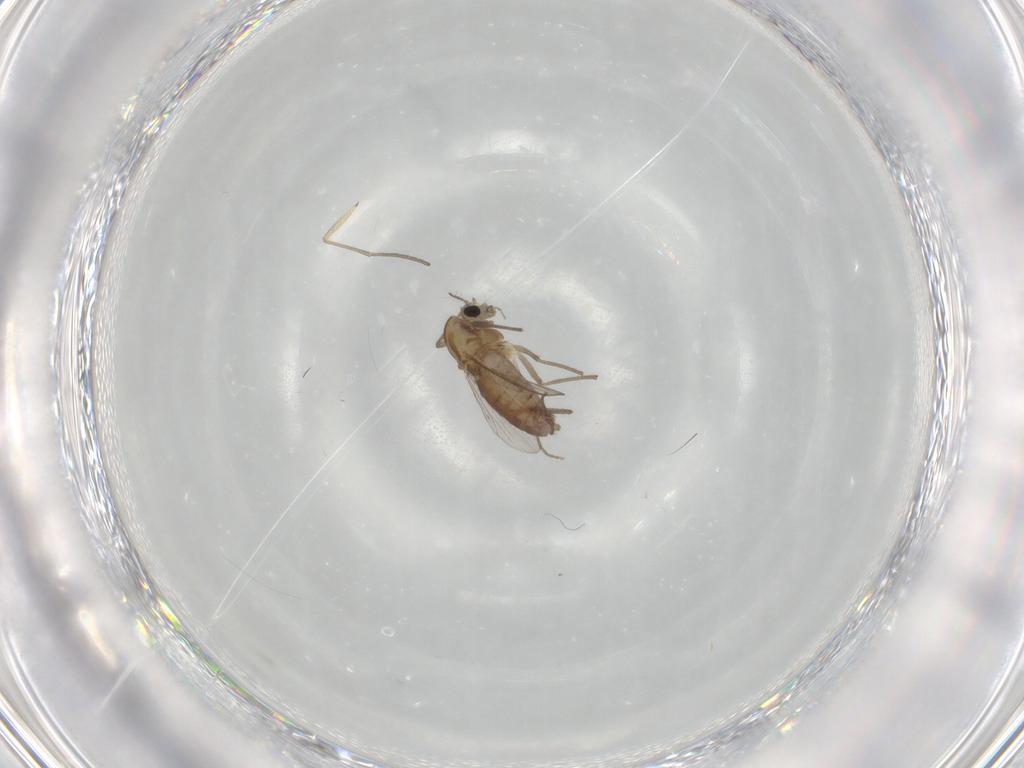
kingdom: Animalia
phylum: Arthropoda
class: Insecta
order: Diptera
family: Chironomidae
